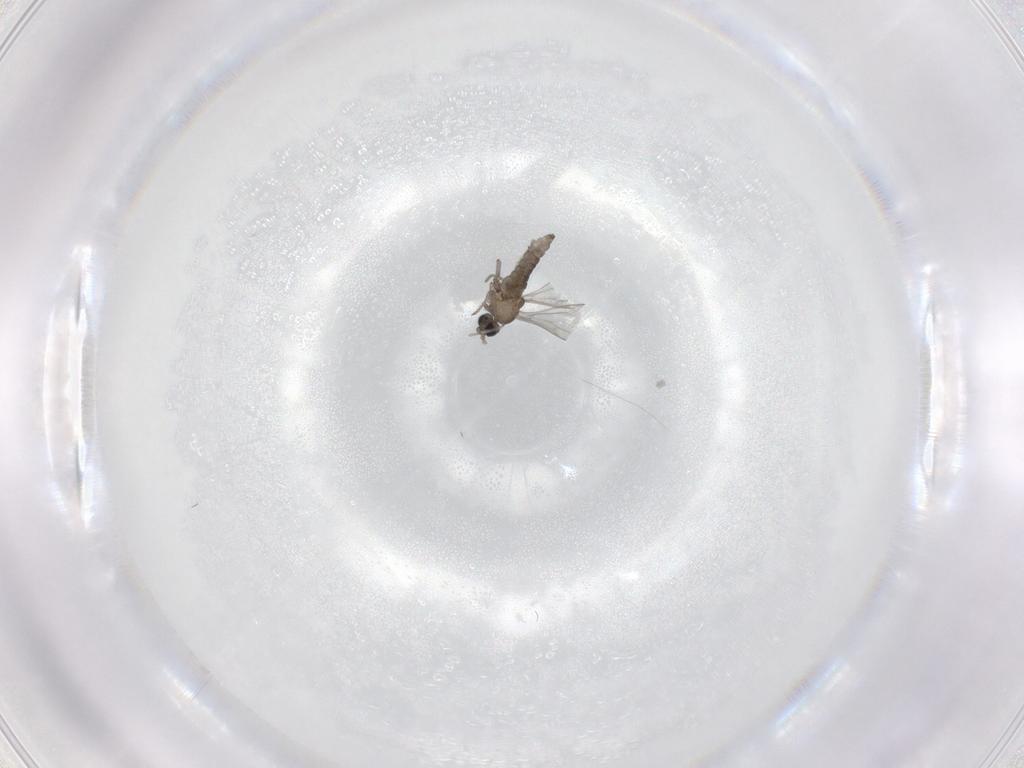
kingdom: Animalia
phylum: Arthropoda
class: Insecta
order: Diptera
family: Cecidomyiidae
